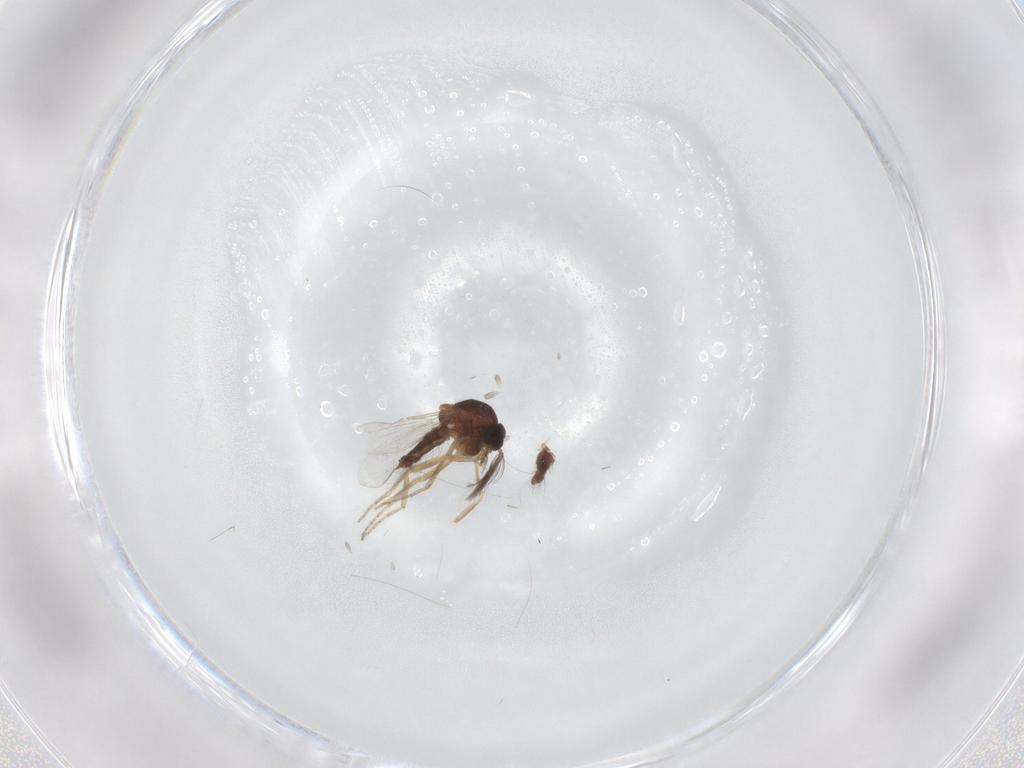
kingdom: Animalia
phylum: Arthropoda
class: Insecta
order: Diptera
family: Ceratopogonidae
